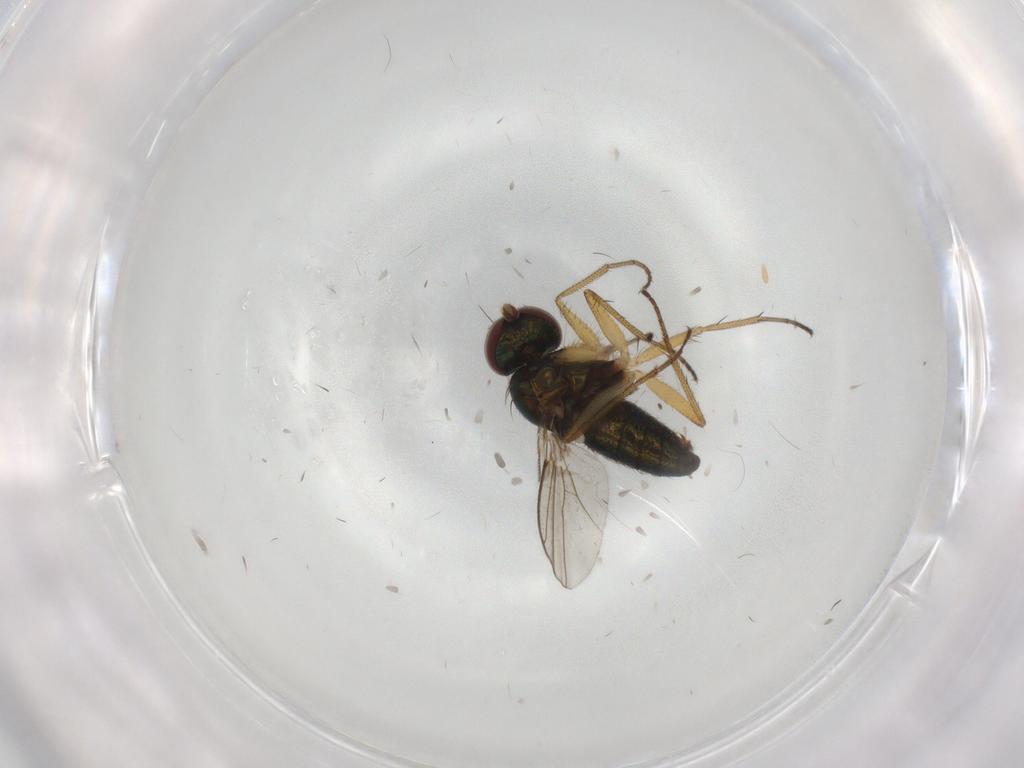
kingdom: Animalia
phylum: Arthropoda
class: Insecta
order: Diptera
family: Dolichopodidae
